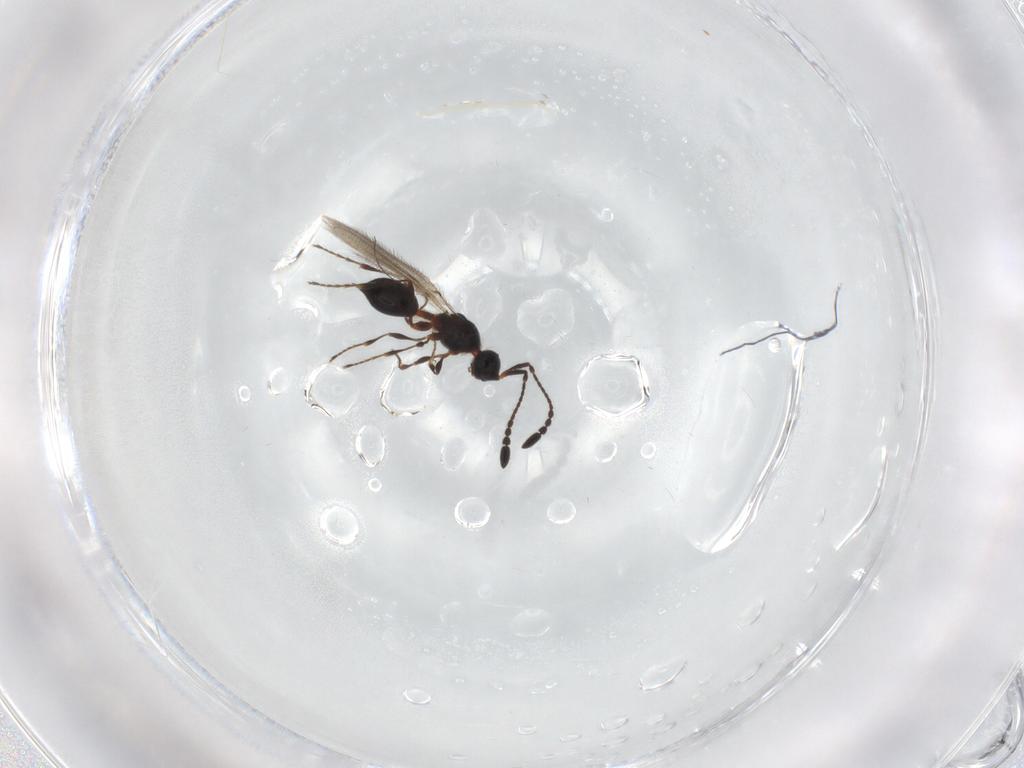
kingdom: Animalia
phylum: Arthropoda
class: Insecta
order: Hymenoptera
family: Diapriidae
